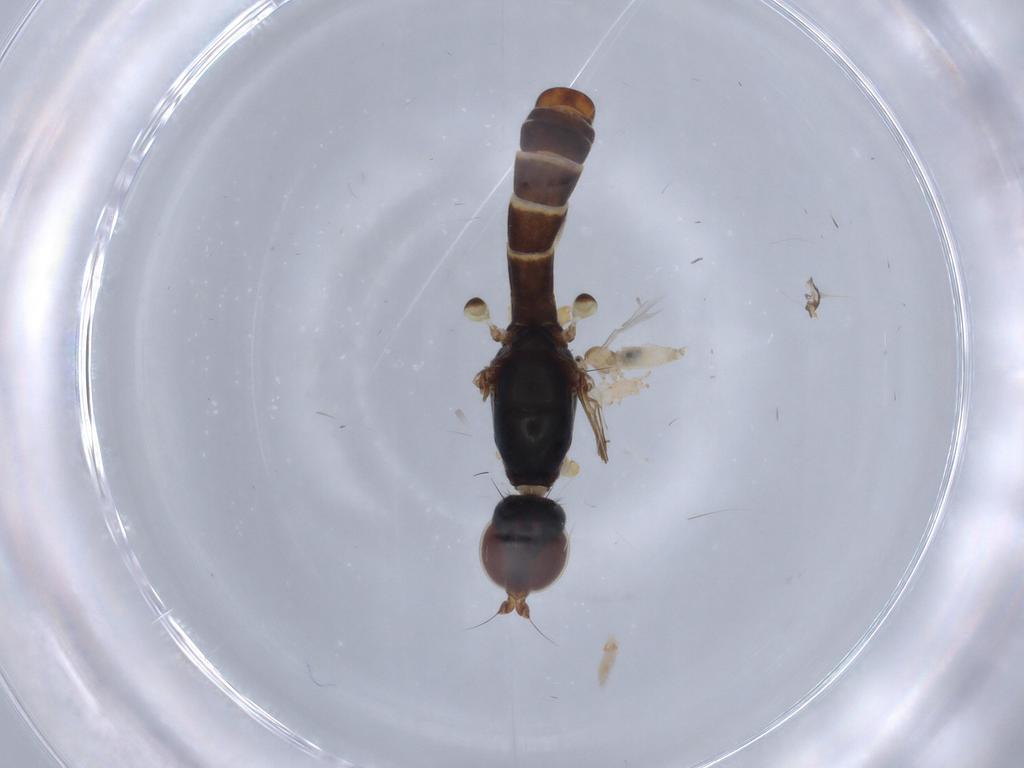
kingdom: Animalia
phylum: Arthropoda
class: Insecta
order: Diptera
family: Micropezidae
